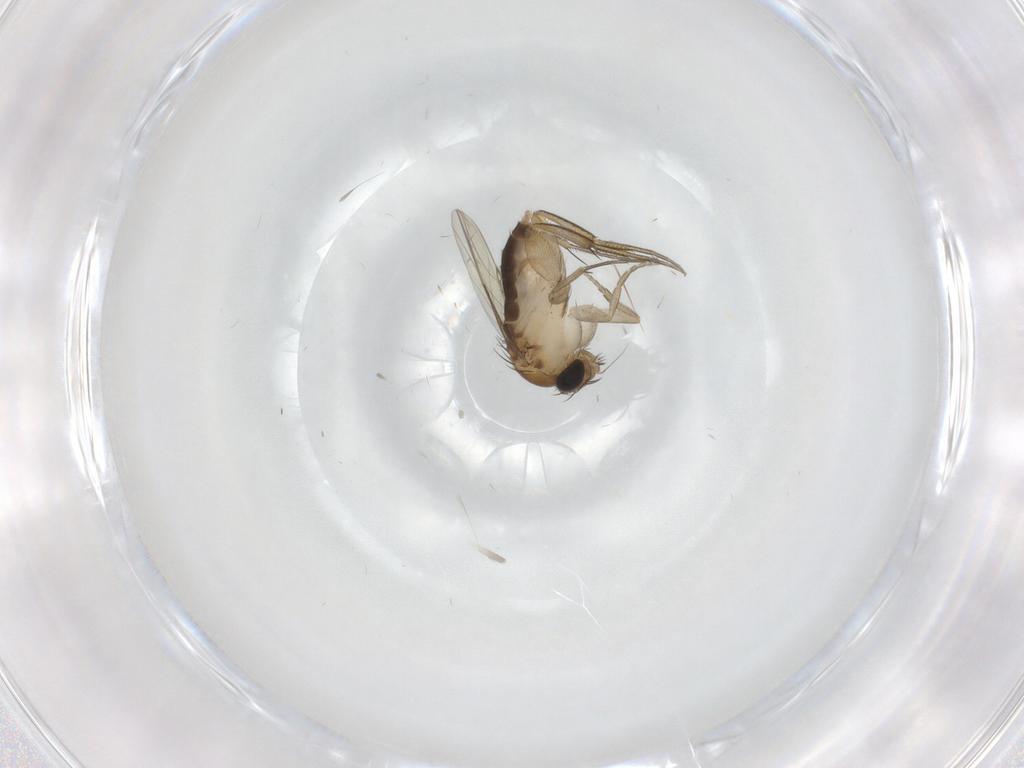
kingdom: Animalia
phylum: Arthropoda
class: Insecta
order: Diptera
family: Phoridae
